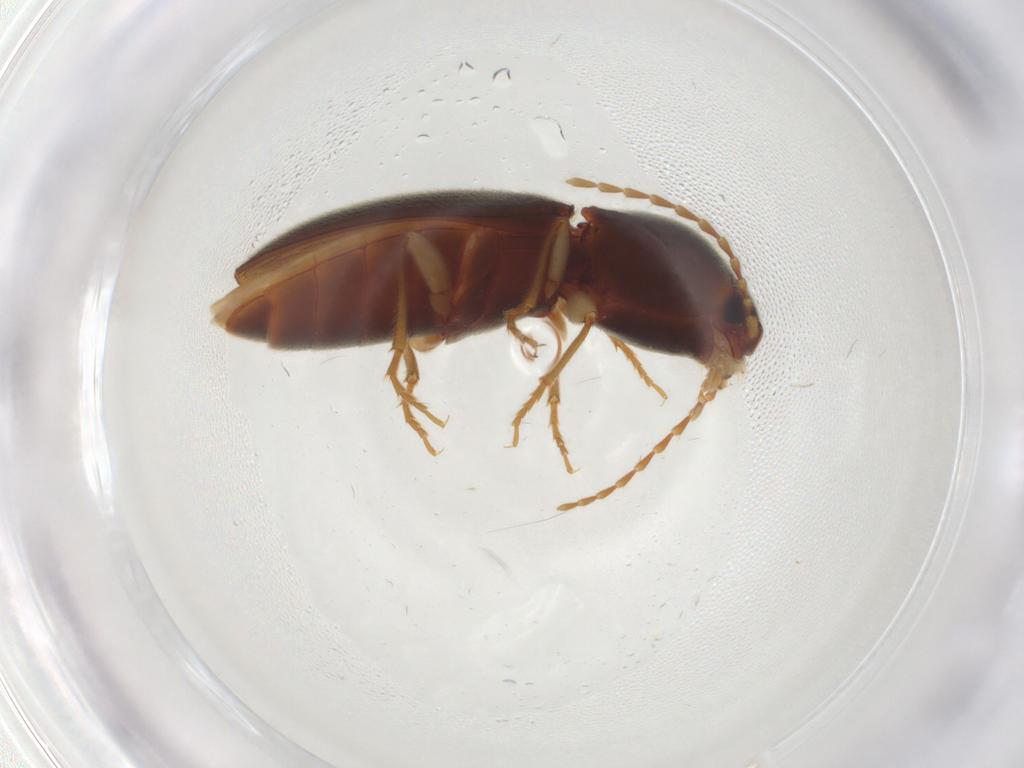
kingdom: Animalia
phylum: Arthropoda
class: Insecta
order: Coleoptera
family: Elateridae
